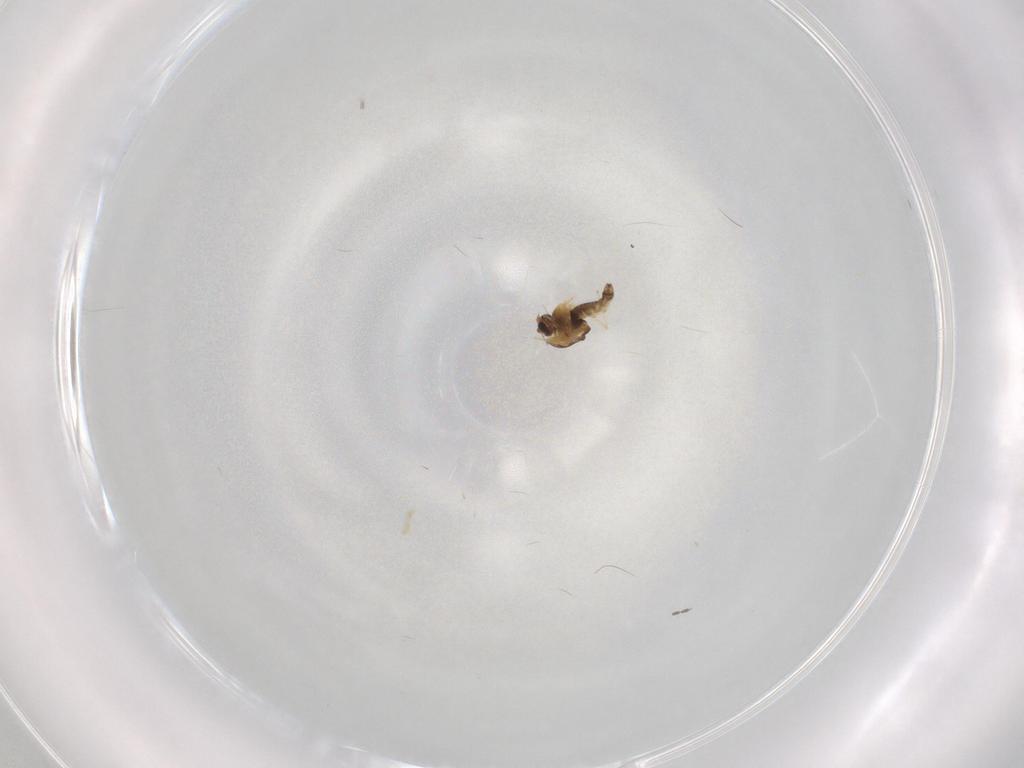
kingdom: Animalia
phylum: Arthropoda
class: Insecta
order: Diptera
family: Chironomidae
